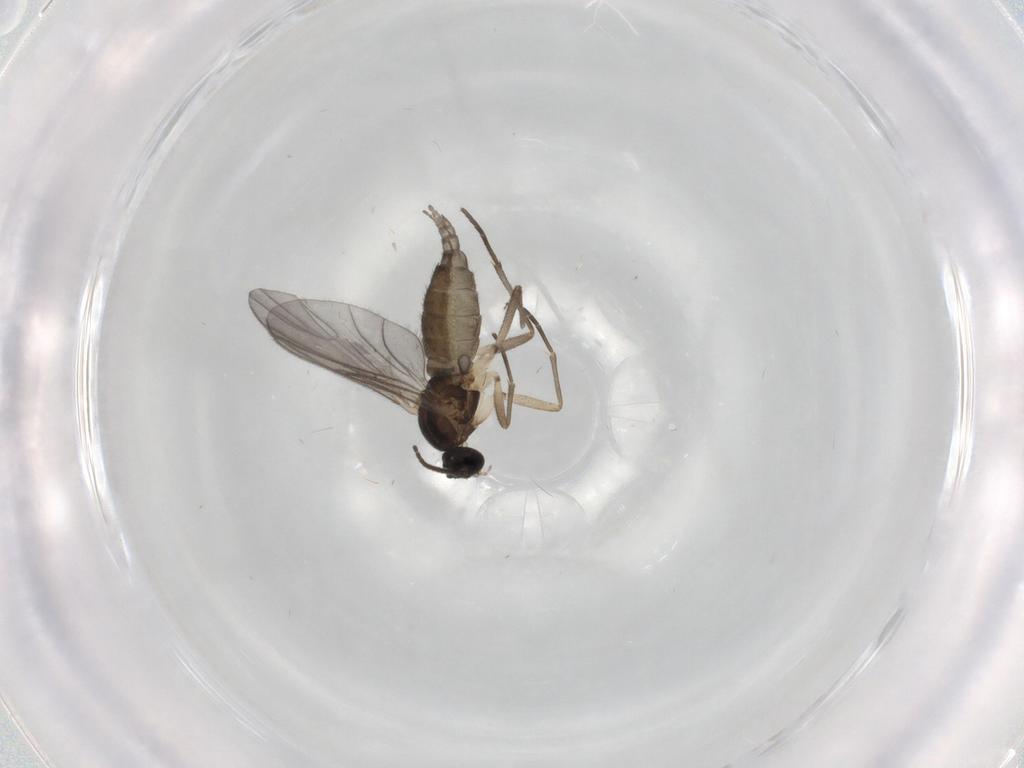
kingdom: Animalia
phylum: Arthropoda
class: Insecta
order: Diptera
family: Sciaridae
